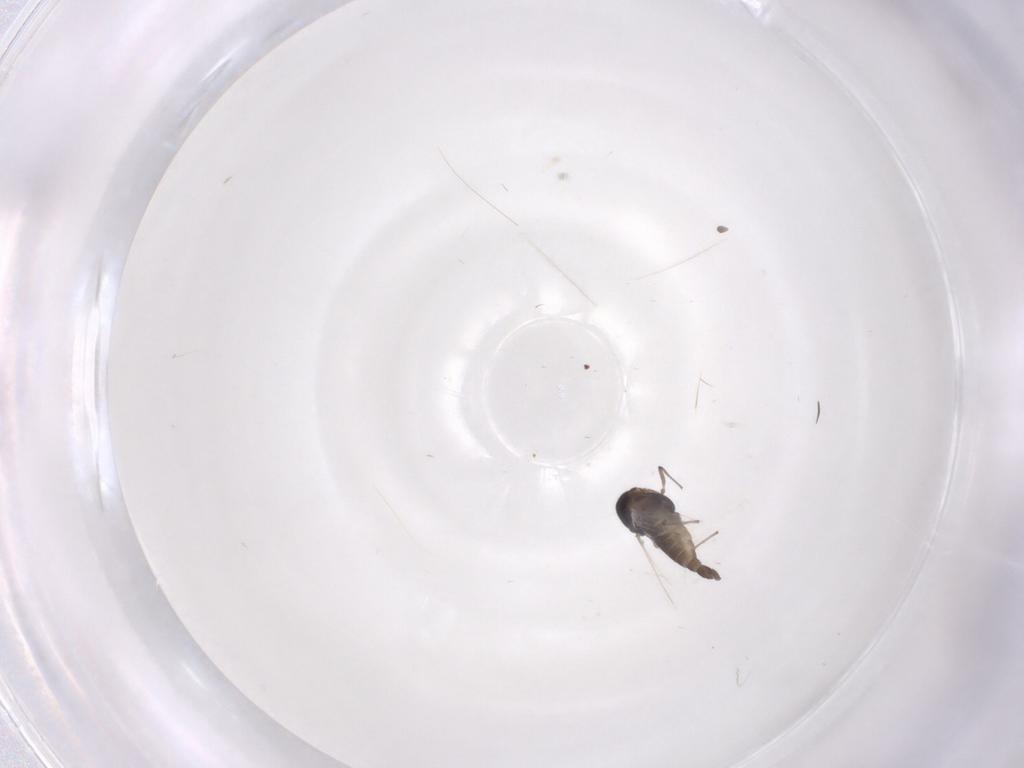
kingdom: Animalia
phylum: Arthropoda
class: Insecta
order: Diptera
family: Chironomidae
